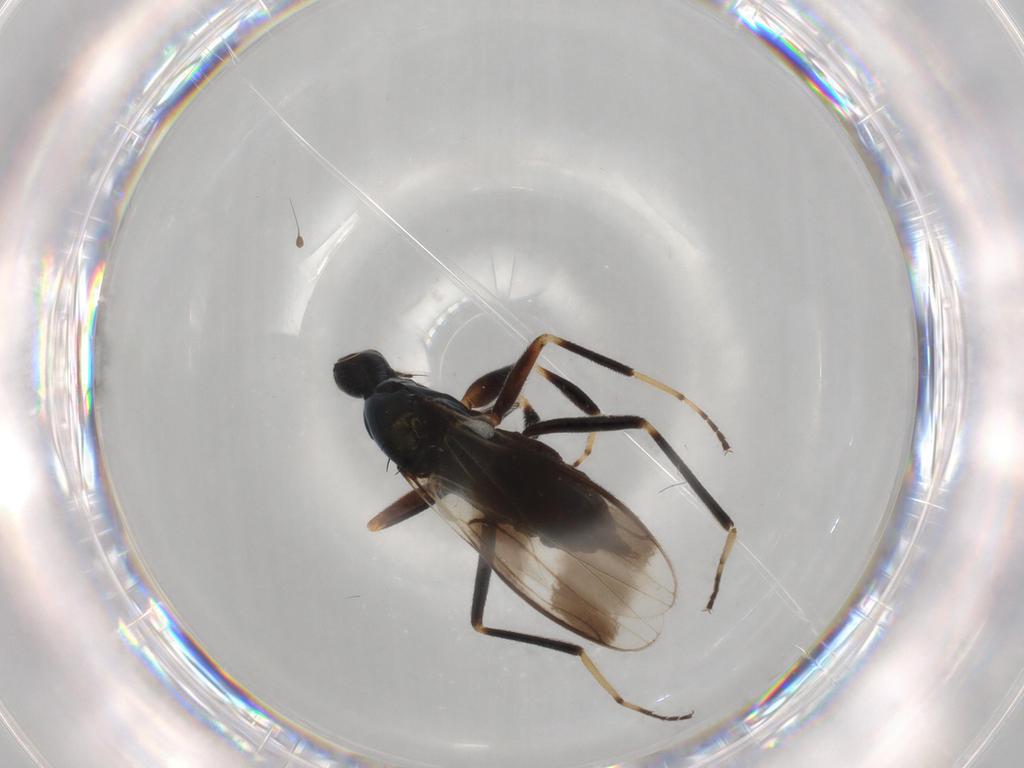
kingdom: Animalia
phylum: Arthropoda
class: Insecta
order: Diptera
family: Hybotidae
